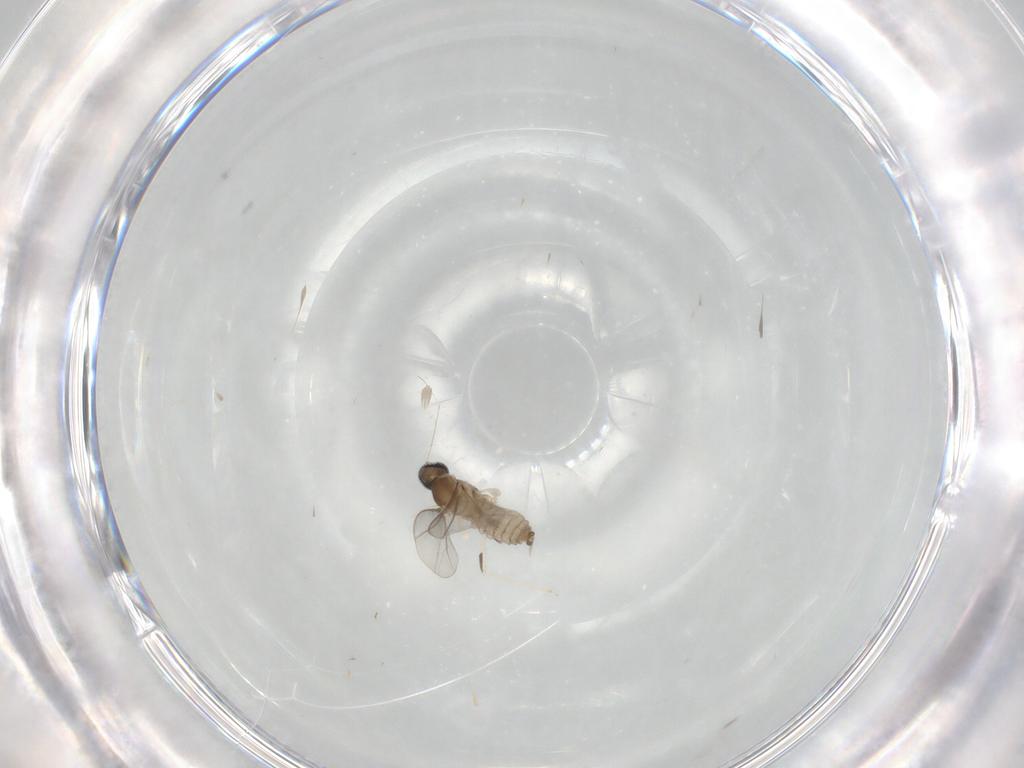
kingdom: Animalia
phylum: Arthropoda
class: Insecta
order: Diptera
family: Cecidomyiidae
